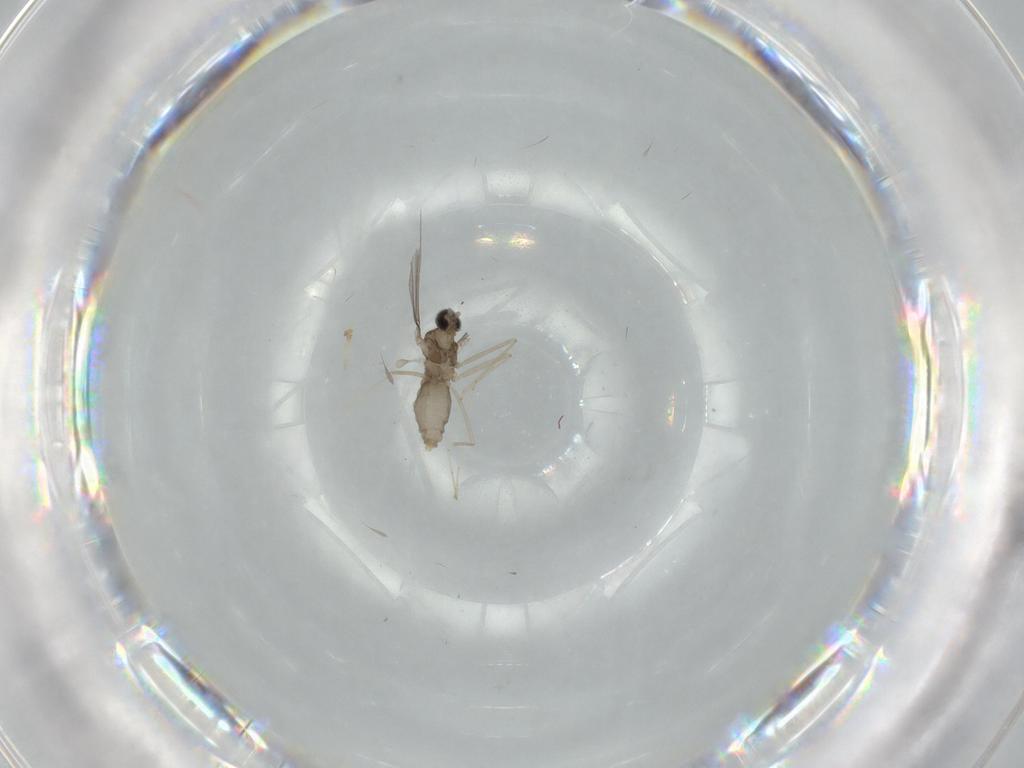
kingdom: Animalia
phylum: Arthropoda
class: Insecta
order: Diptera
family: Cecidomyiidae
